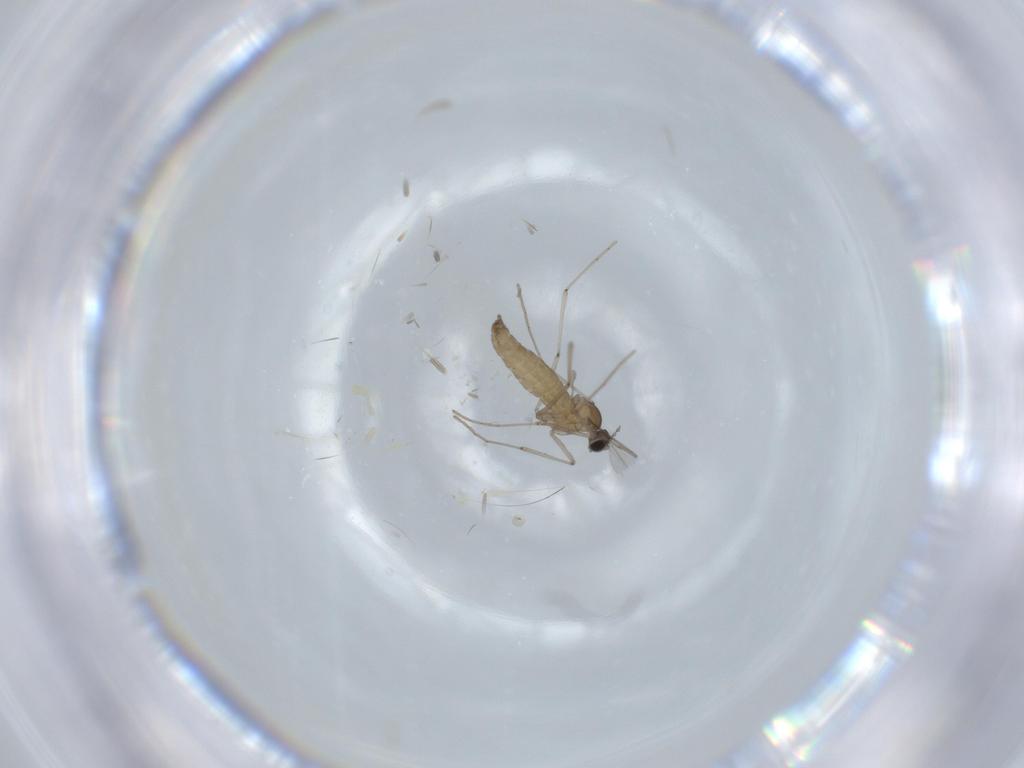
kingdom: Animalia
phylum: Arthropoda
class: Insecta
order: Diptera
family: Cecidomyiidae
